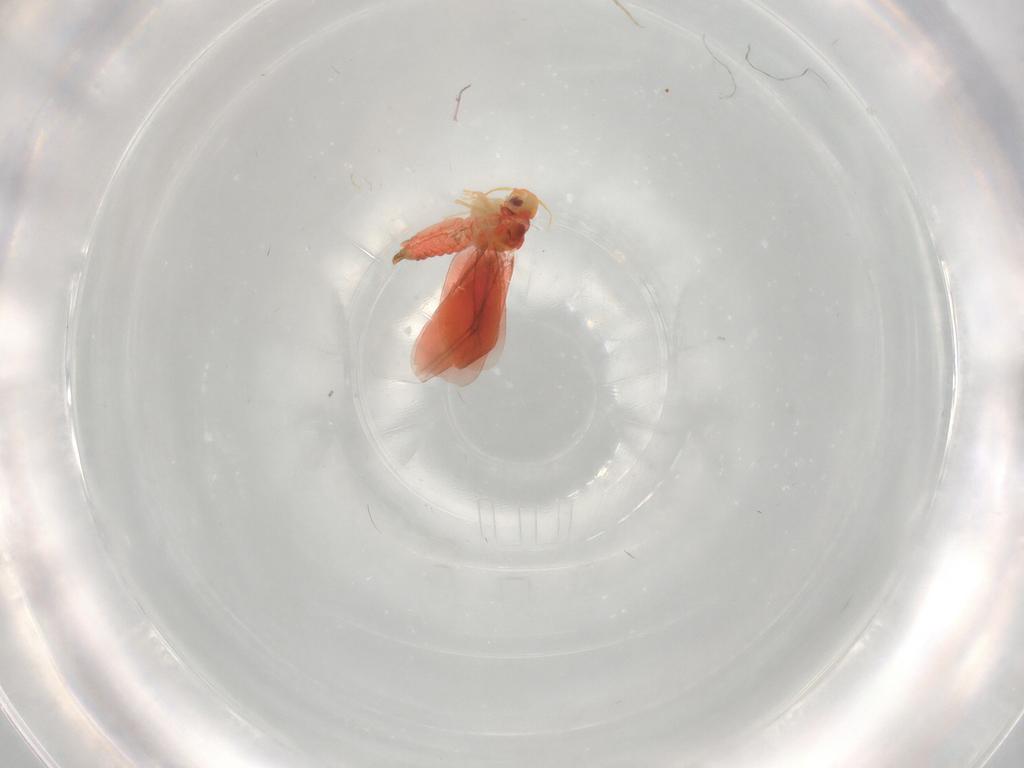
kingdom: Animalia
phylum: Arthropoda
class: Insecta
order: Hemiptera
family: Aleyrodidae
